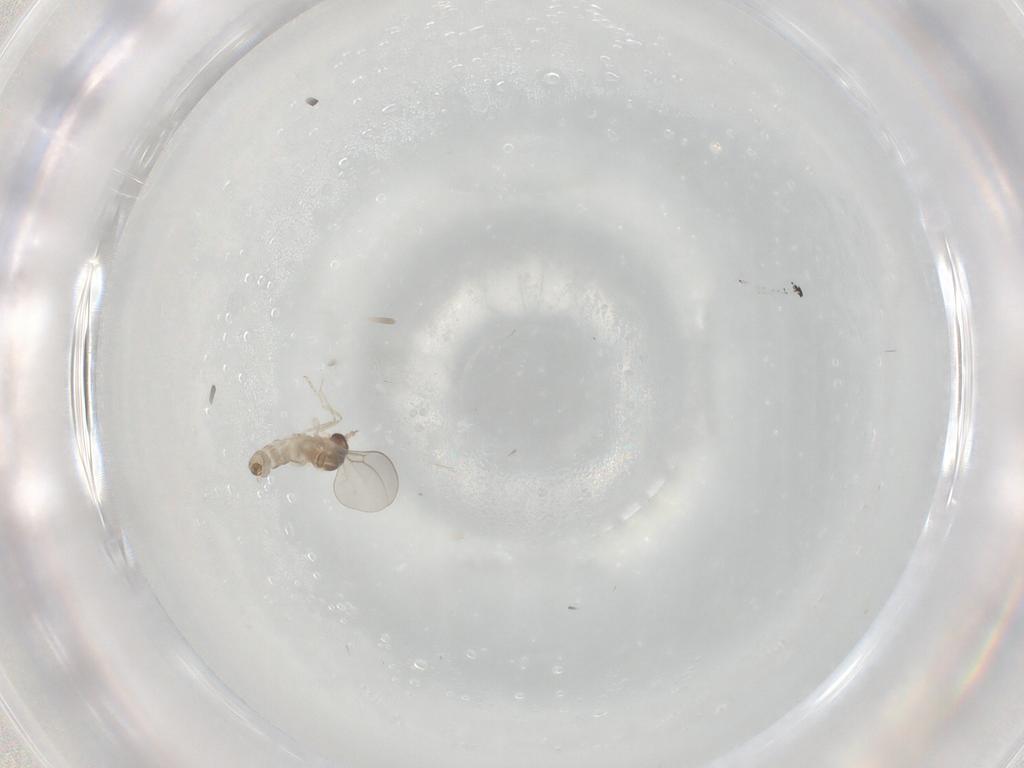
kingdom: Animalia
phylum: Arthropoda
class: Insecta
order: Diptera
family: Cecidomyiidae
